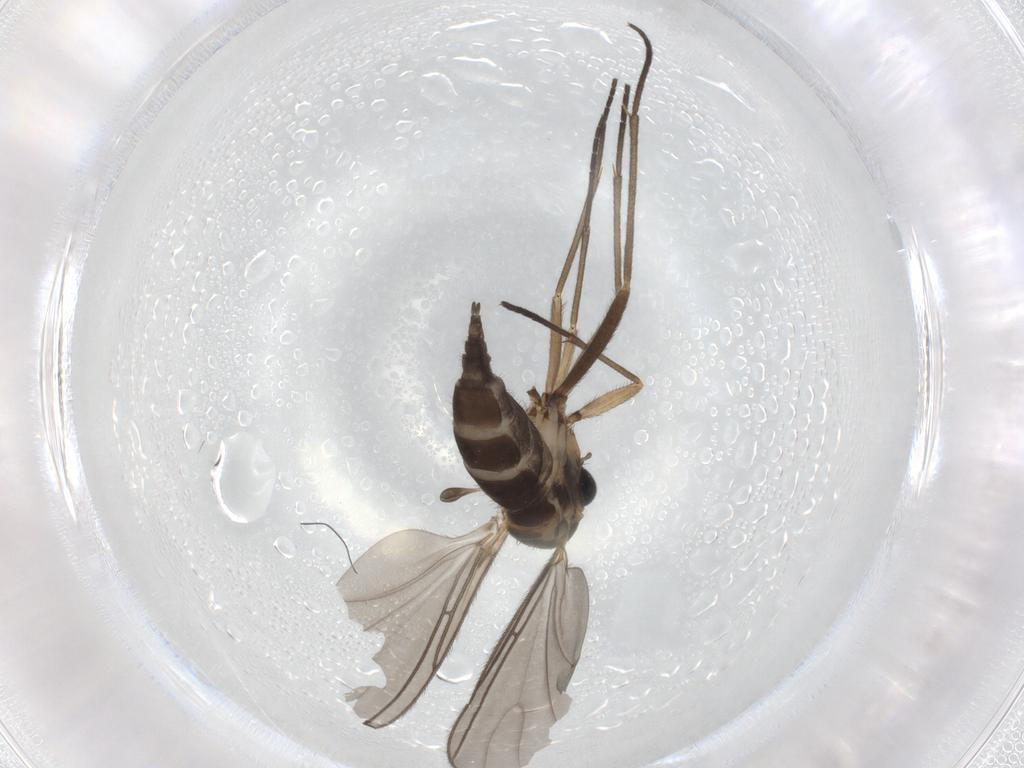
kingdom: Animalia
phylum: Arthropoda
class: Insecta
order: Diptera
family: Sciaridae
